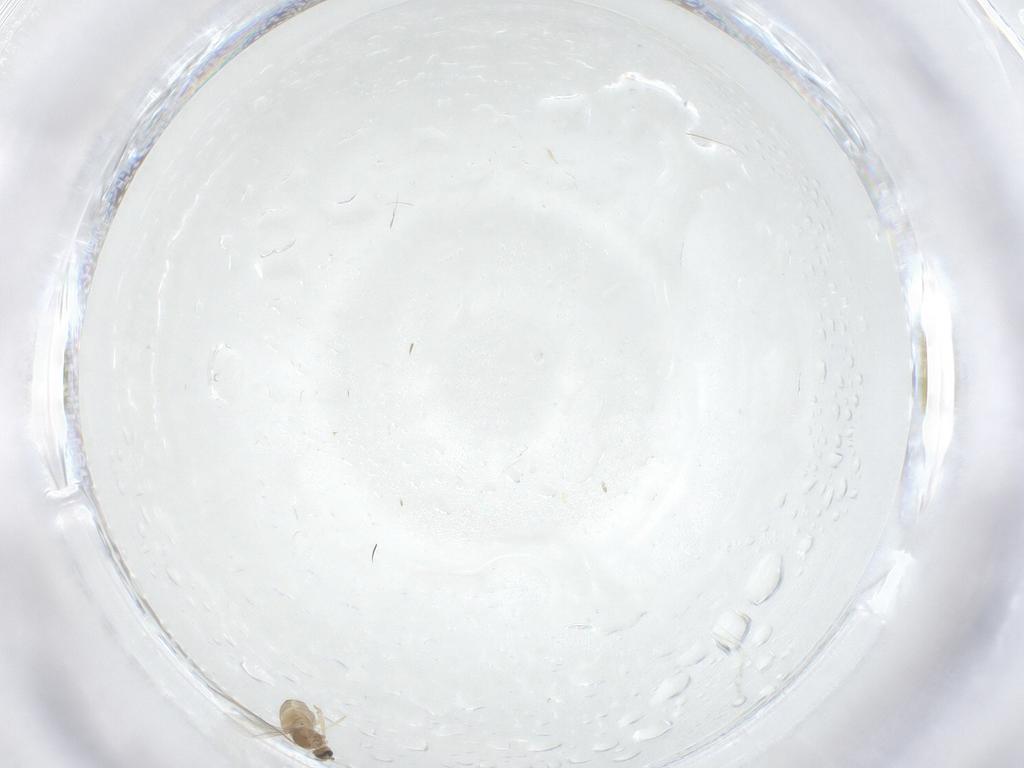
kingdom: Animalia
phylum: Arthropoda
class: Insecta
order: Diptera
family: Cecidomyiidae
